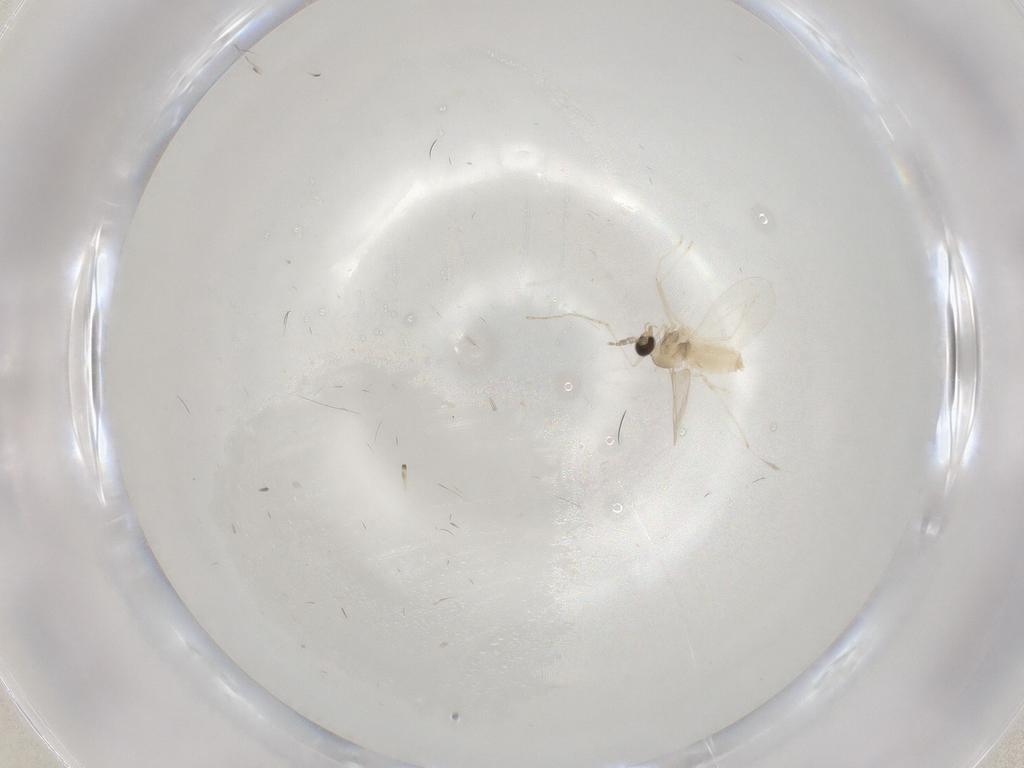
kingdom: Animalia
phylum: Arthropoda
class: Insecta
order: Diptera
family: Cecidomyiidae
